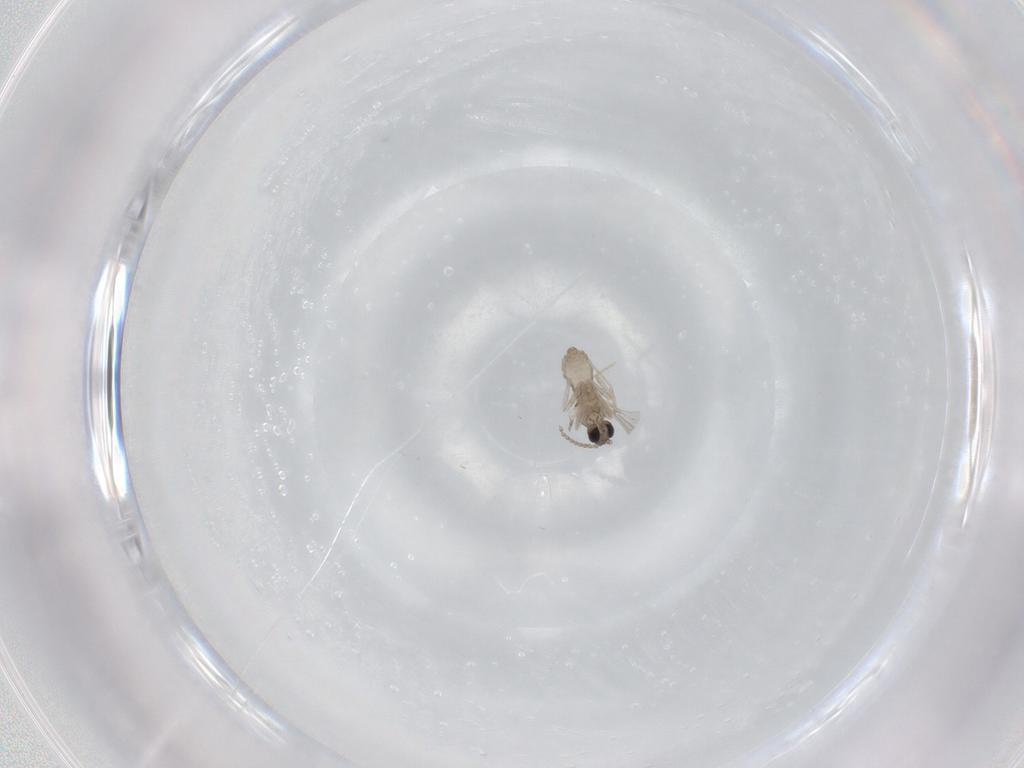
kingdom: Animalia
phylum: Arthropoda
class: Insecta
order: Diptera
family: Cecidomyiidae
